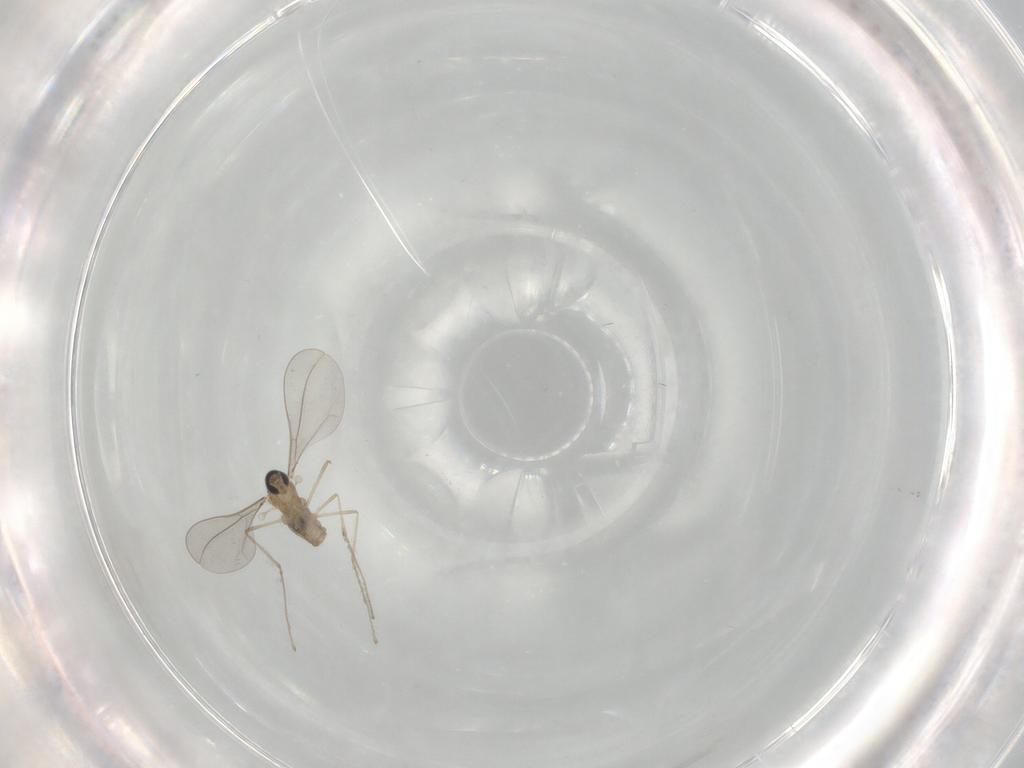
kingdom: Animalia
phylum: Arthropoda
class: Insecta
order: Diptera
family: Cecidomyiidae
